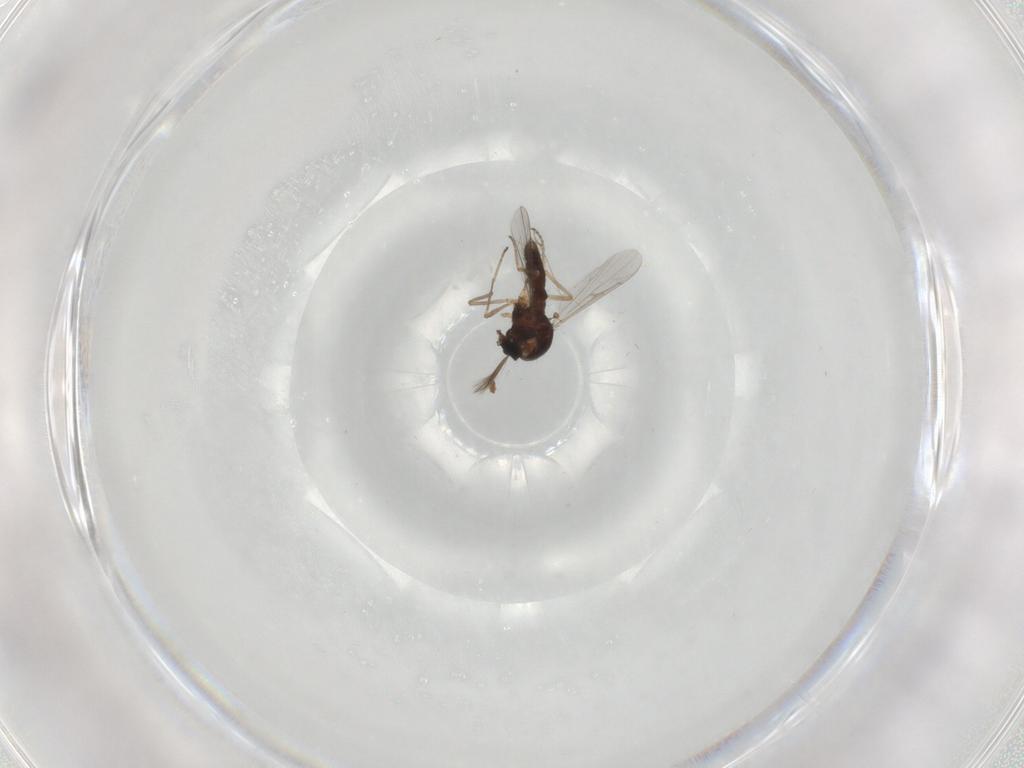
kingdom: Animalia
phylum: Arthropoda
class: Insecta
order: Diptera
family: Ceratopogonidae
